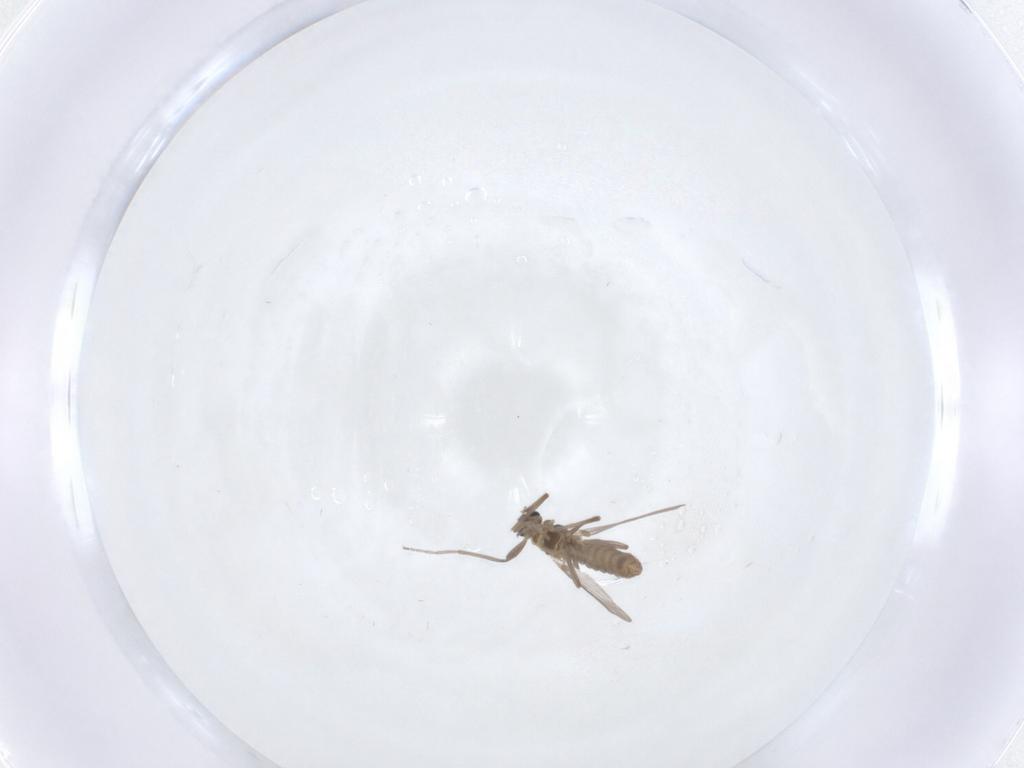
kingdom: Animalia
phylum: Arthropoda
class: Insecta
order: Diptera
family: Chironomidae
